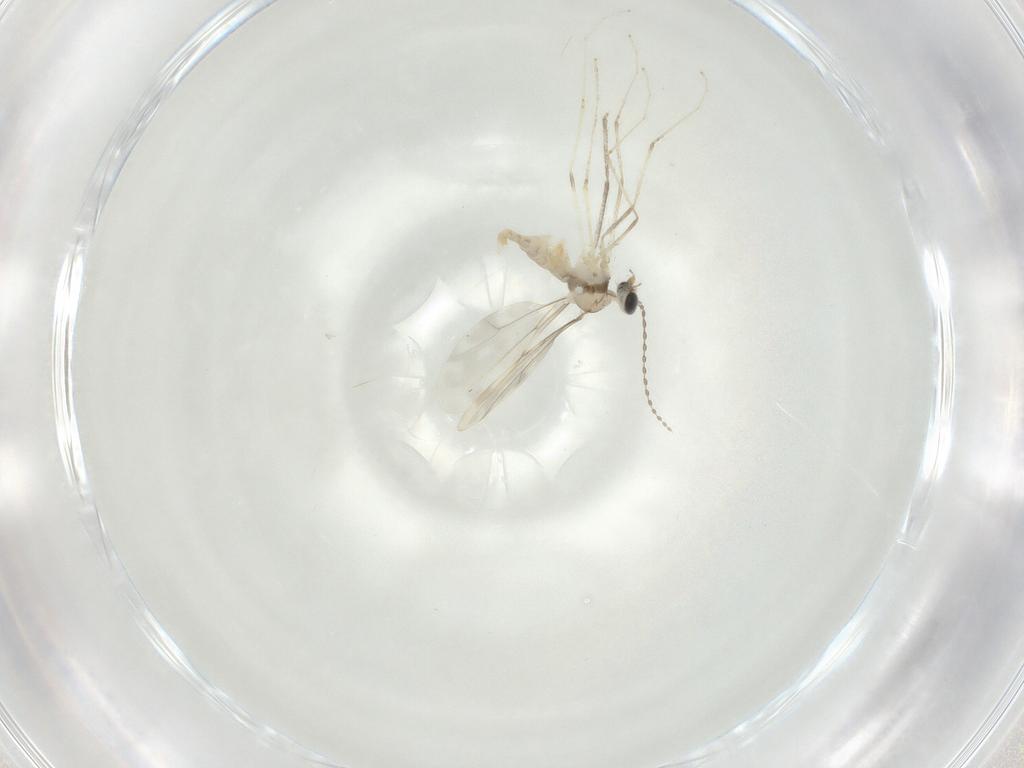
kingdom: Animalia
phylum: Arthropoda
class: Insecta
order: Diptera
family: Cecidomyiidae
